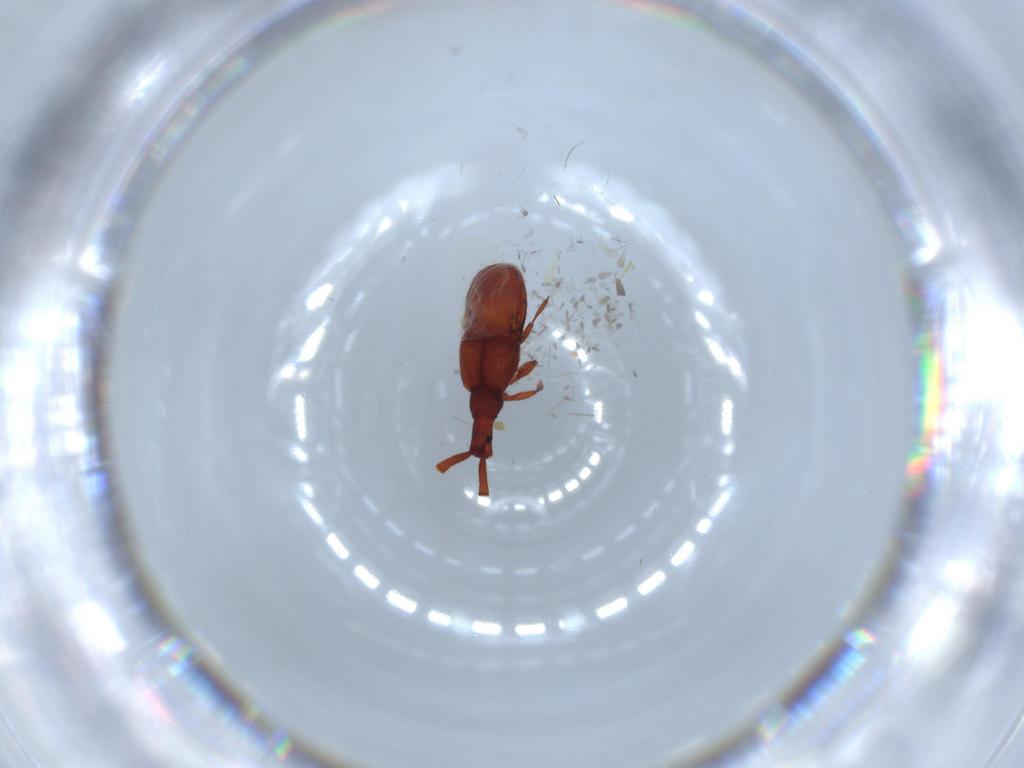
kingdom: Animalia
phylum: Arthropoda
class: Insecta
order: Coleoptera
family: Staphylinidae
